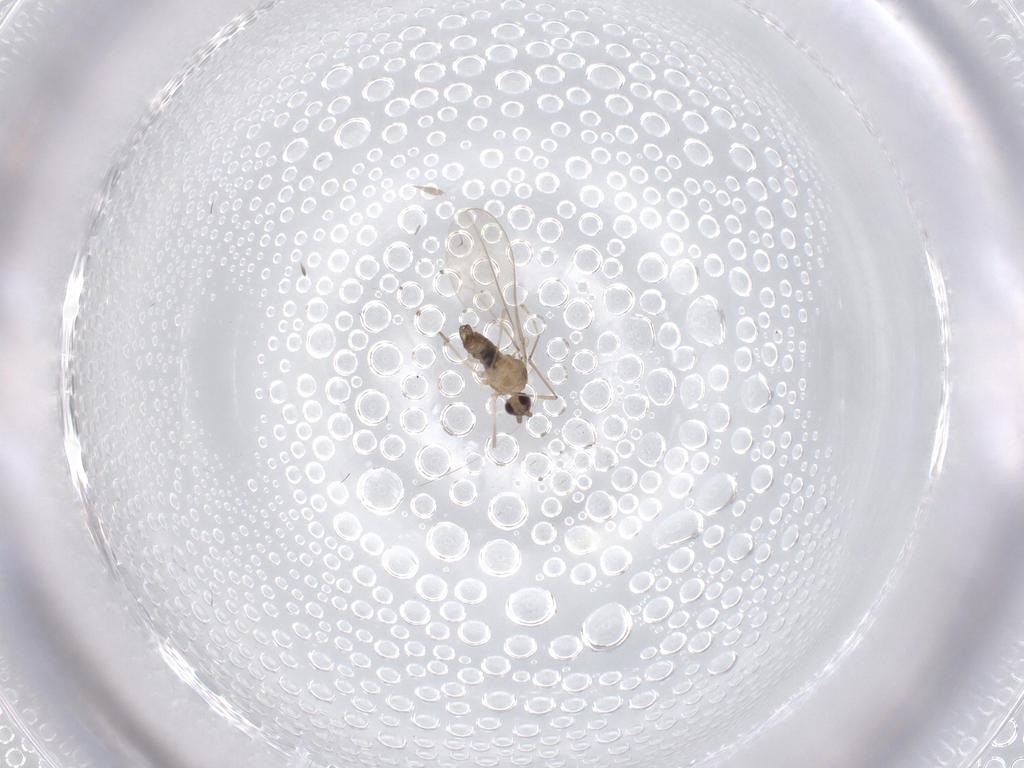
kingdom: Animalia
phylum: Arthropoda
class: Insecta
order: Diptera
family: Cecidomyiidae
